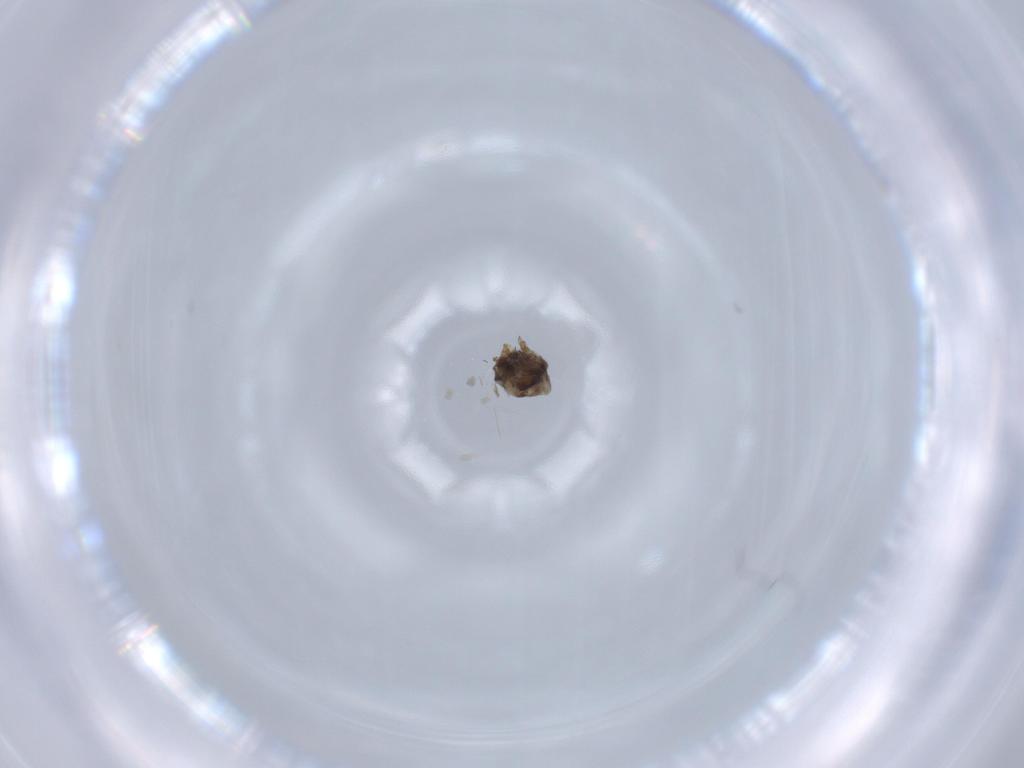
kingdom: Animalia
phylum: Arthropoda
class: Insecta
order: Diptera
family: Cecidomyiidae
